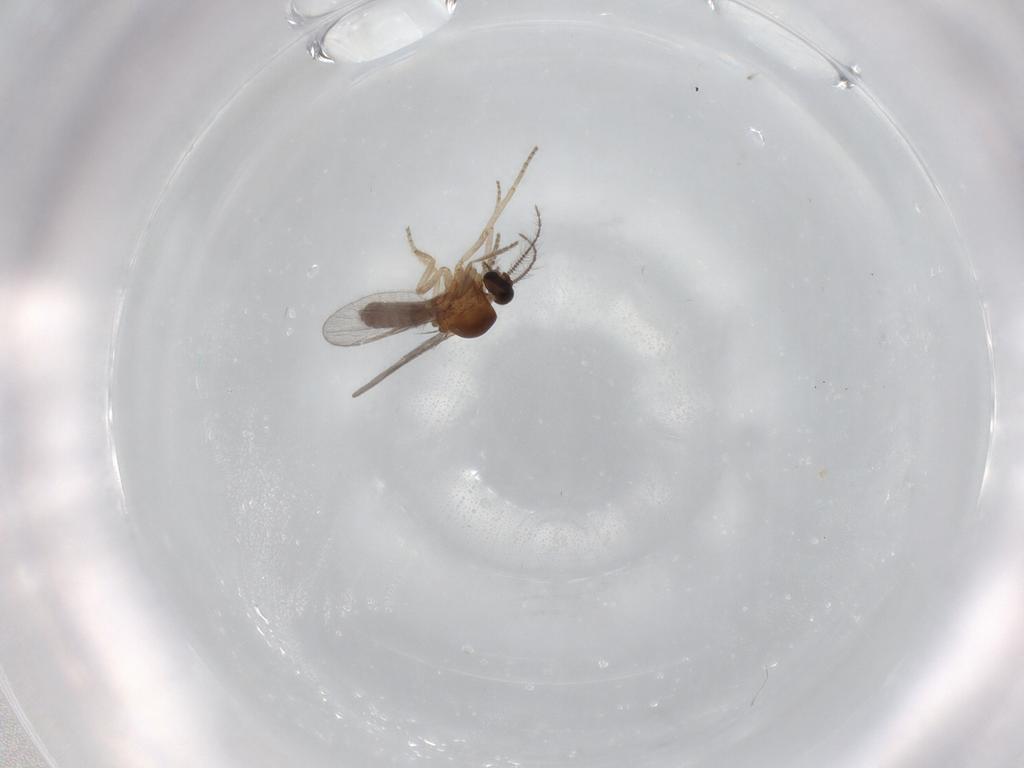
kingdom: Animalia
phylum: Arthropoda
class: Insecta
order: Diptera
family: Ceratopogonidae
